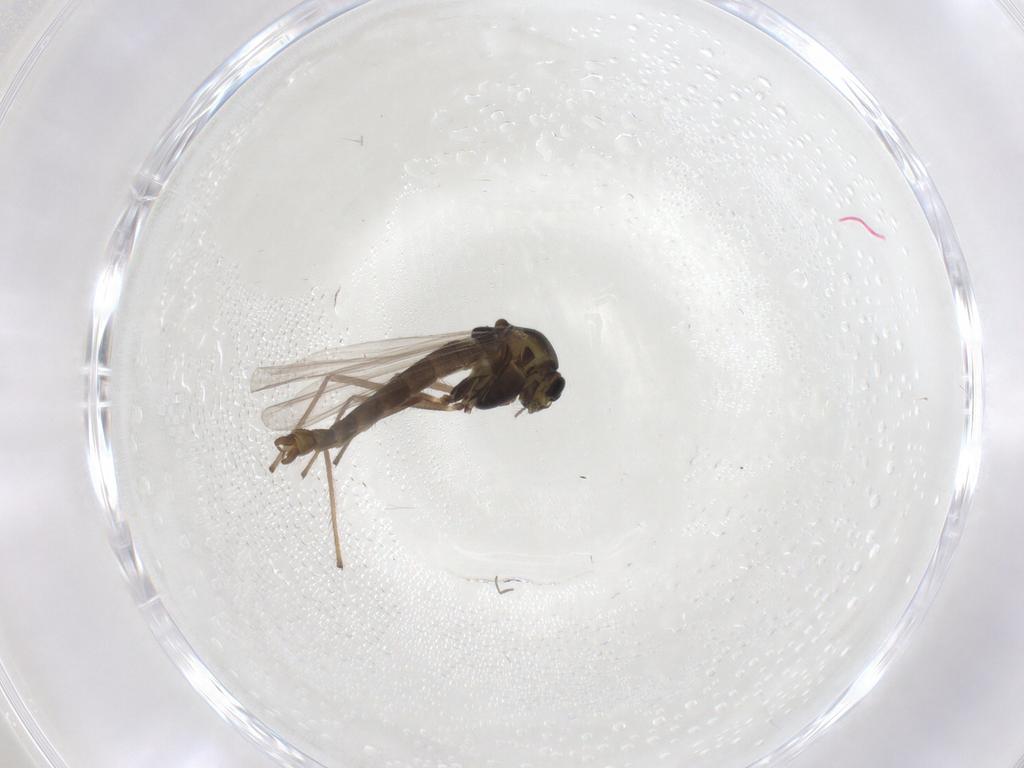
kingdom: Animalia
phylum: Arthropoda
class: Insecta
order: Diptera
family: Chironomidae
